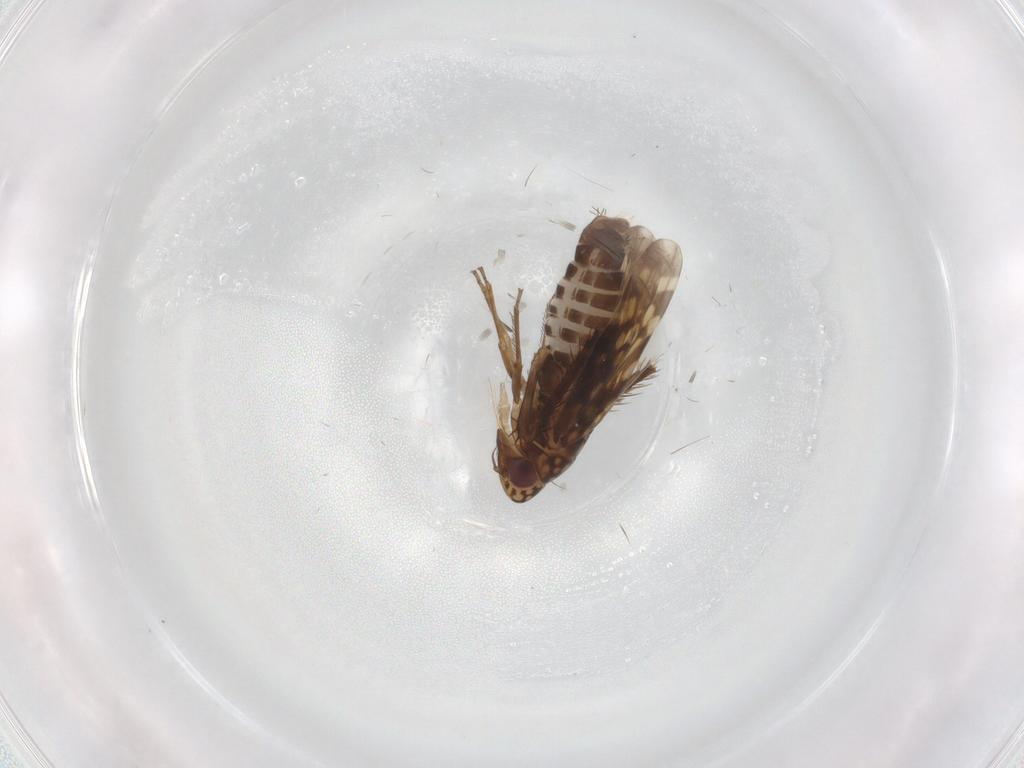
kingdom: Animalia
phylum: Arthropoda
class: Insecta
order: Hemiptera
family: Cicadellidae
